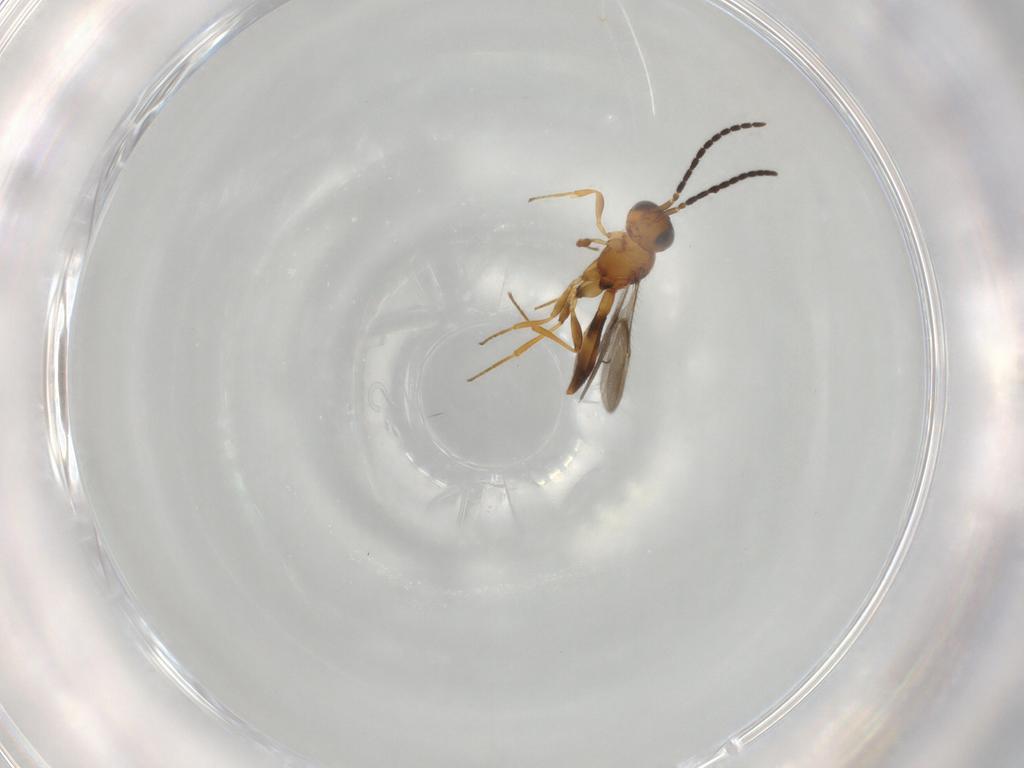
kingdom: Animalia
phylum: Arthropoda
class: Insecta
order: Hymenoptera
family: Scelionidae
